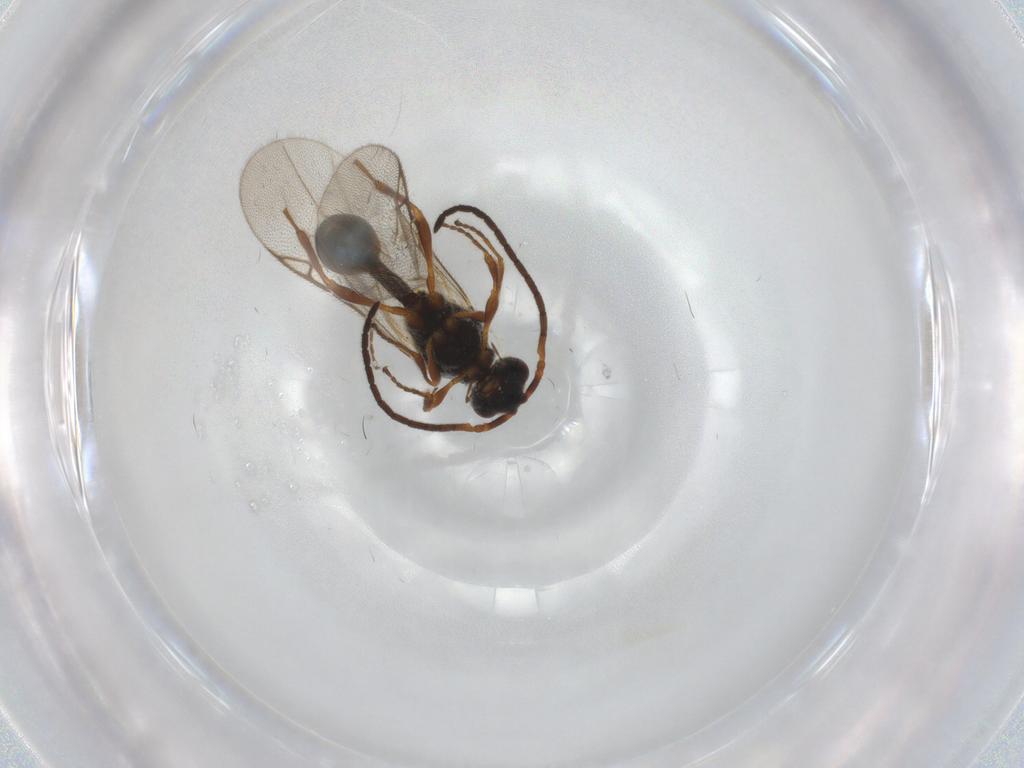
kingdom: Animalia
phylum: Arthropoda
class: Insecta
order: Hymenoptera
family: Diapriidae
